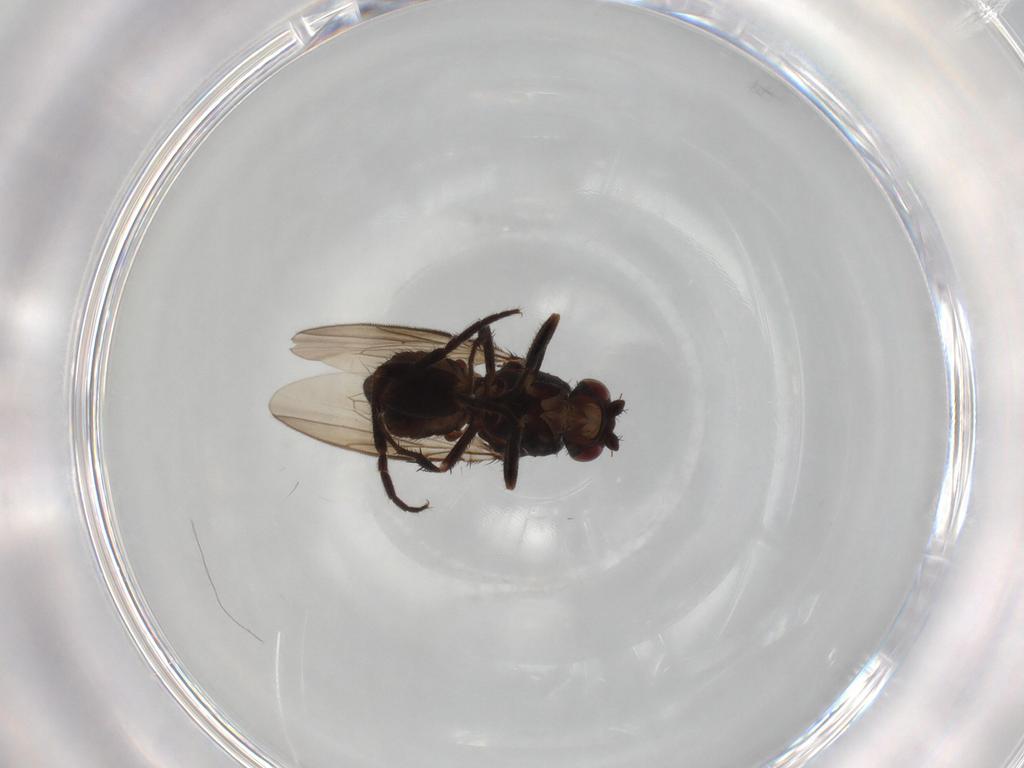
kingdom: Animalia
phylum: Arthropoda
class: Insecta
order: Diptera
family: Sphaeroceridae
